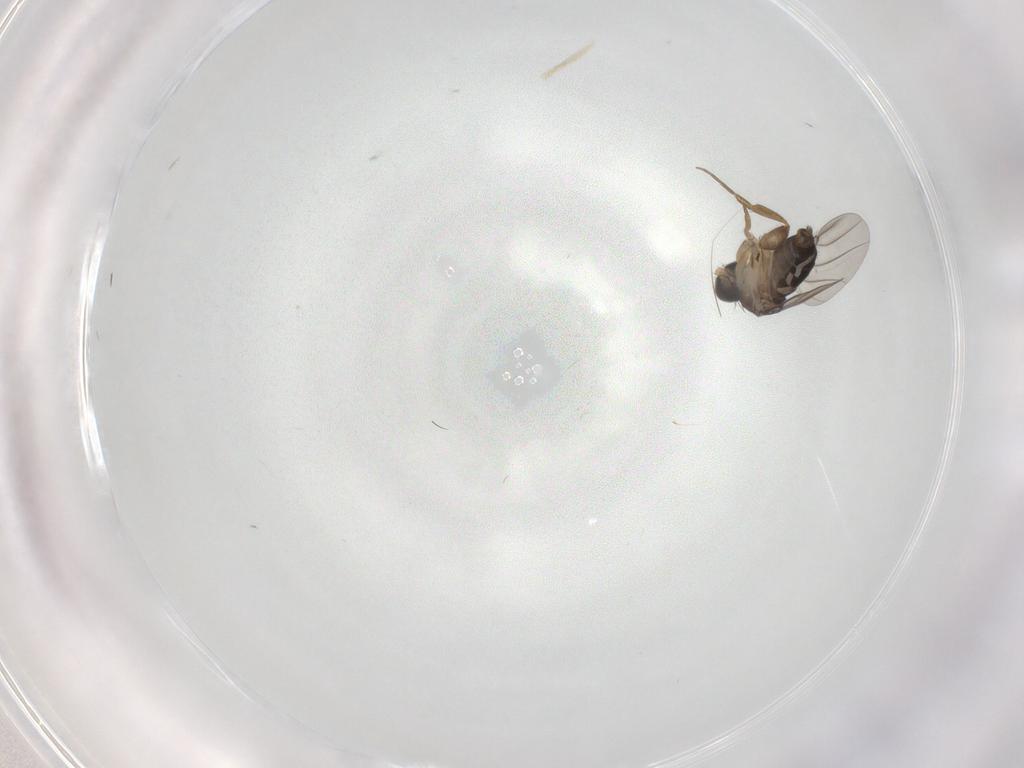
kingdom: Animalia
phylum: Arthropoda
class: Insecta
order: Diptera
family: Phoridae
